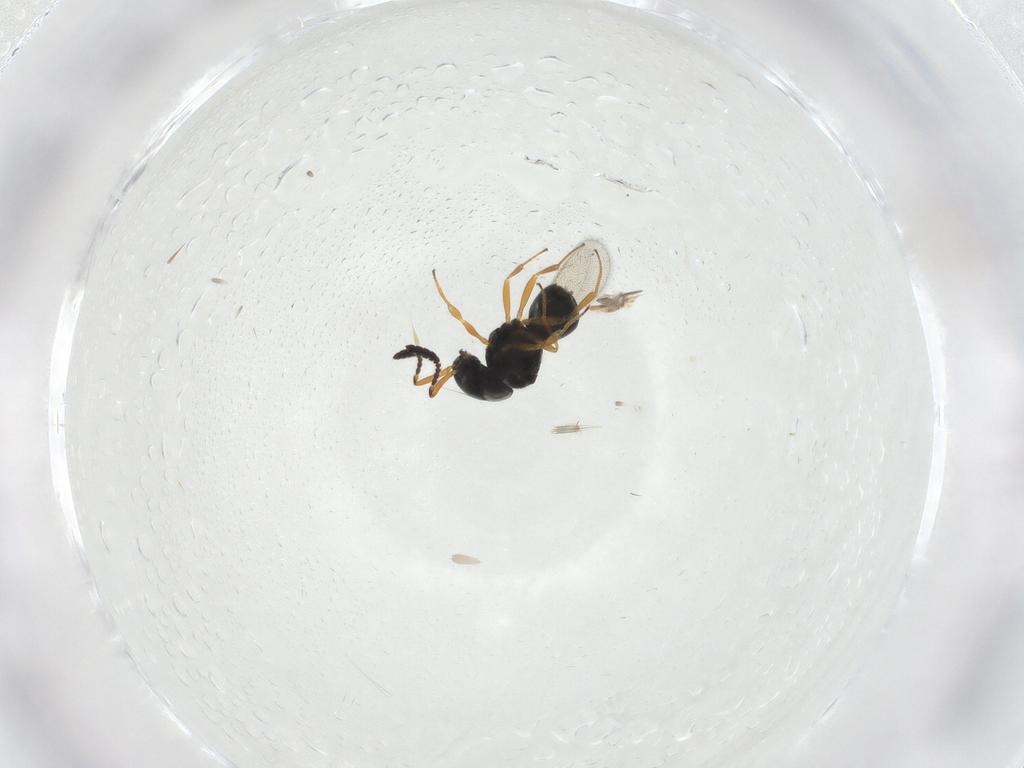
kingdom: Animalia
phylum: Arthropoda
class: Insecta
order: Hymenoptera
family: Scelionidae
